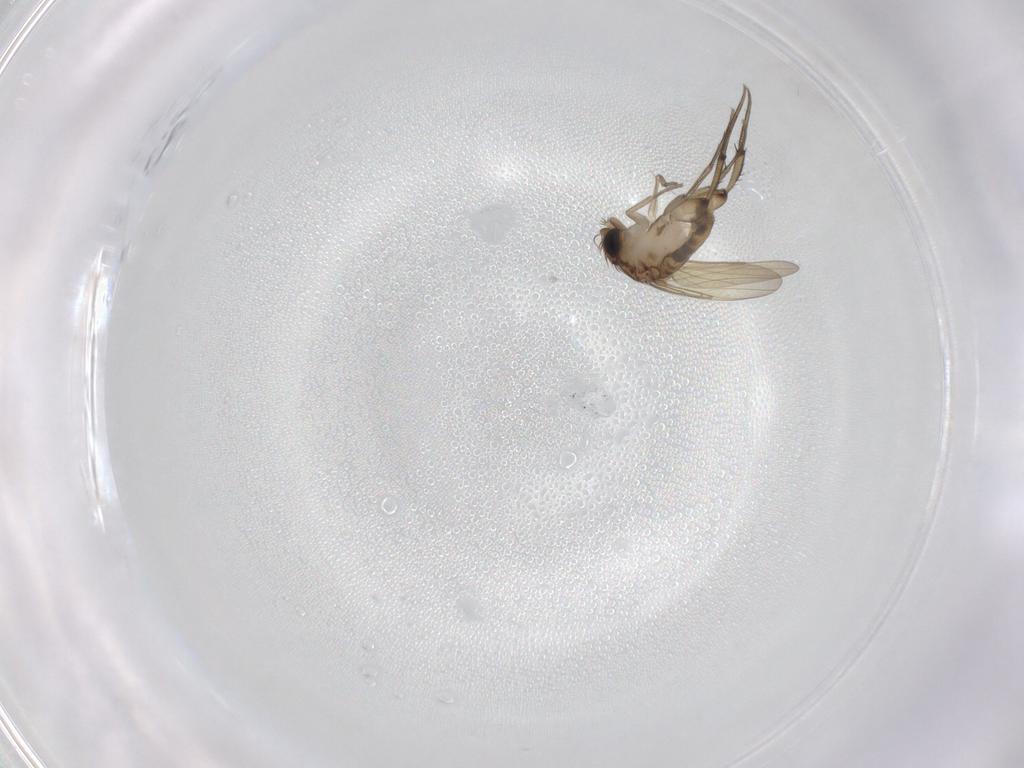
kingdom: Animalia
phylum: Arthropoda
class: Insecta
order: Diptera
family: Phoridae
